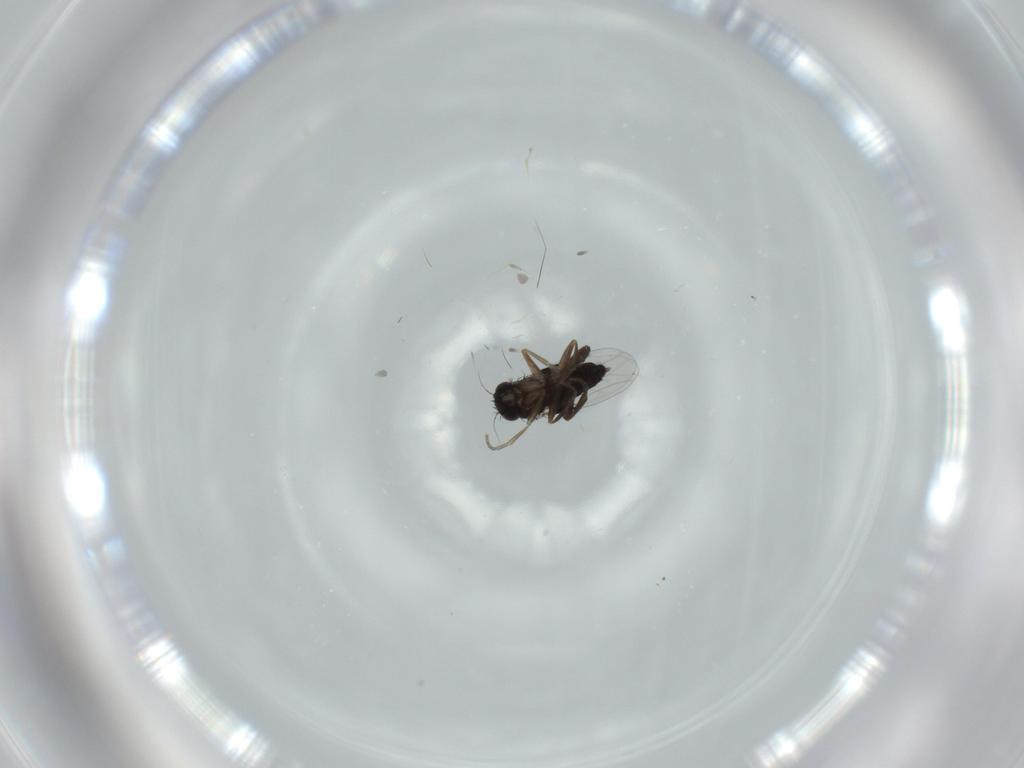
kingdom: Animalia
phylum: Arthropoda
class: Insecta
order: Diptera
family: Phoridae
